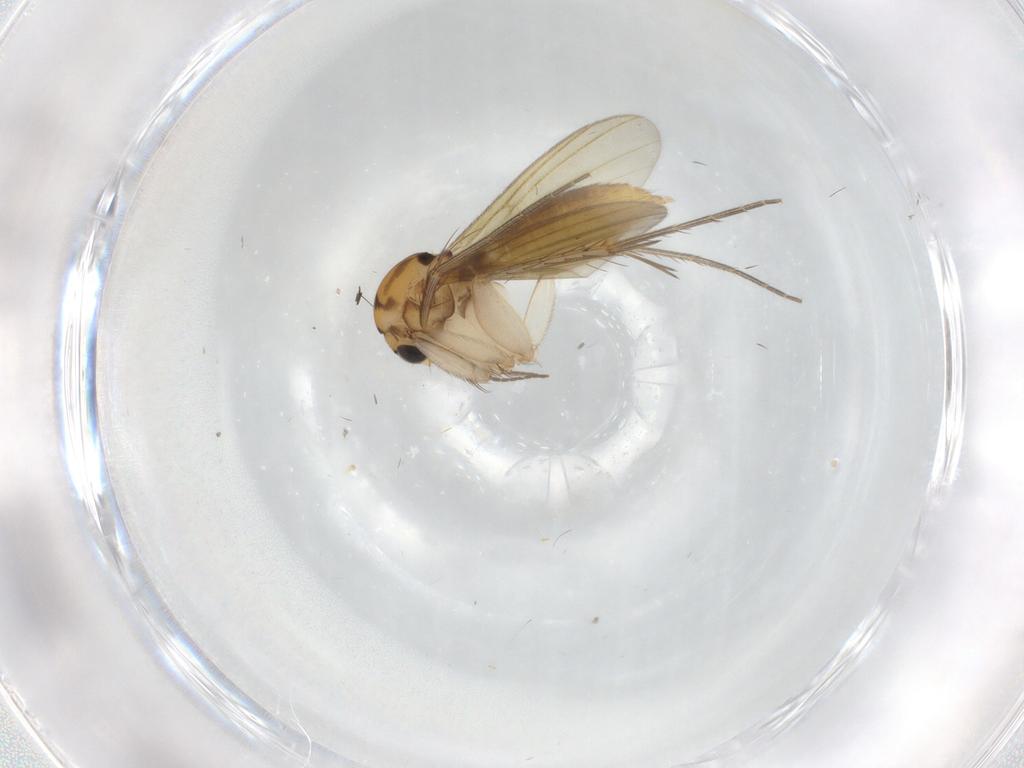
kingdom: Animalia
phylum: Arthropoda
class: Insecta
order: Diptera
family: Mycetophilidae
